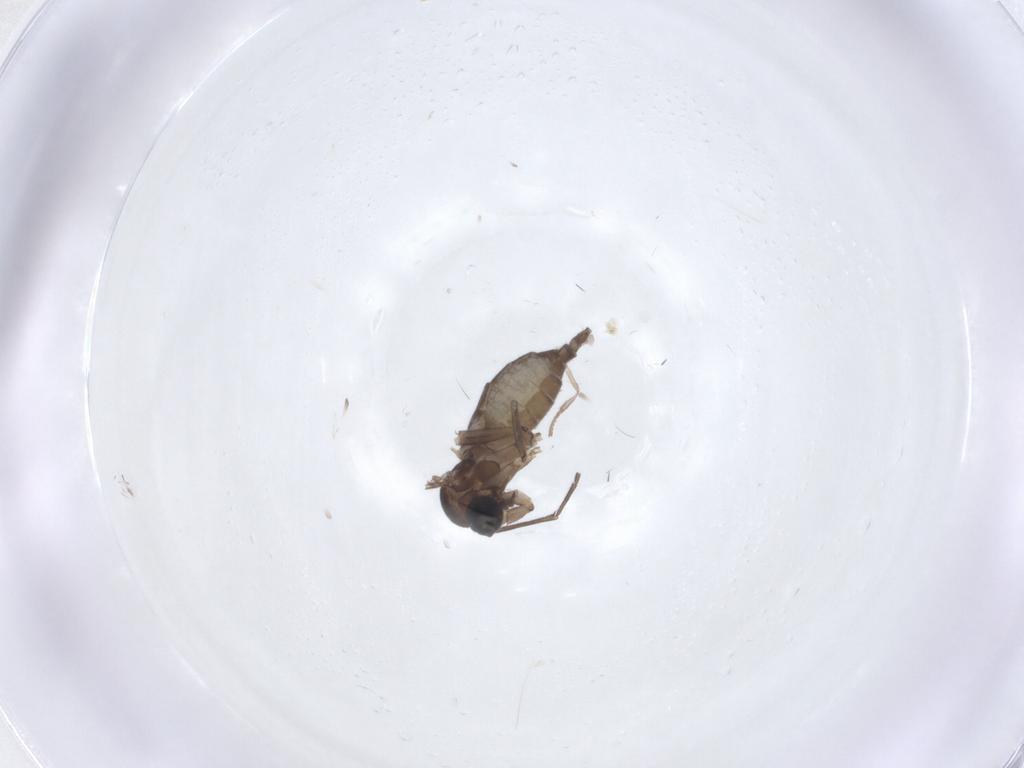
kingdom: Animalia
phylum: Arthropoda
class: Insecta
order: Diptera
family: Sciaridae
